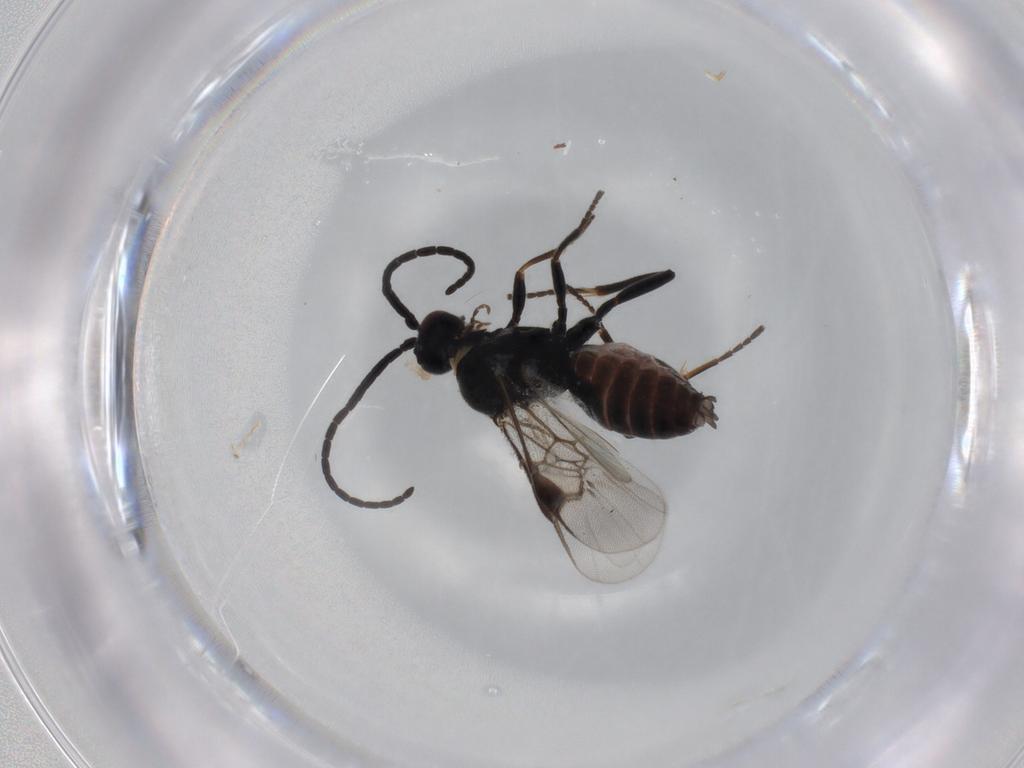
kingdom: Animalia
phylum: Arthropoda
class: Insecta
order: Hymenoptera
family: Braconidae
